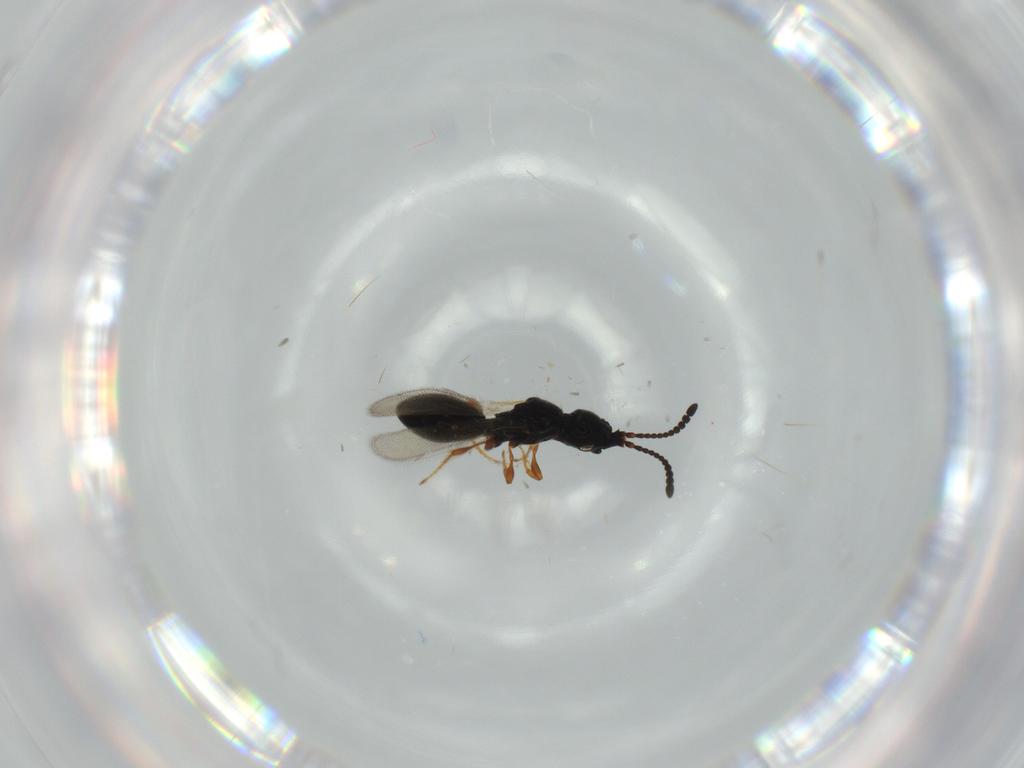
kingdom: Animalia
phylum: Arthropoda
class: Insecta
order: Hymenoptera
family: Diapriidae
